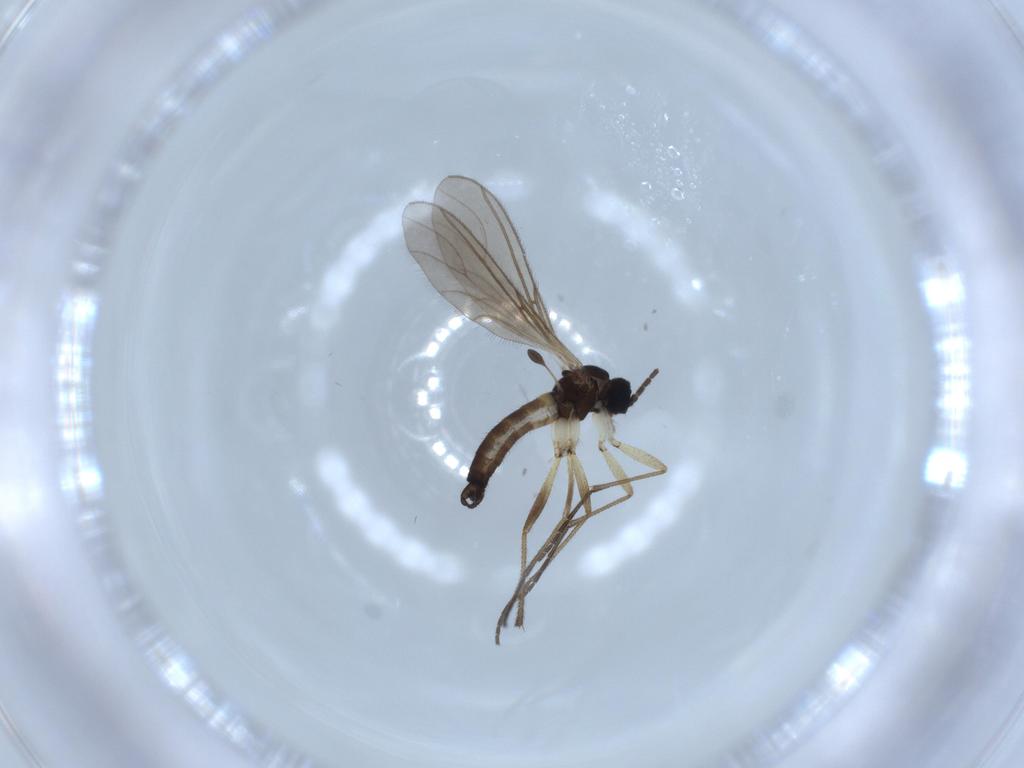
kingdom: Animalia
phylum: Arthropoda
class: Insecta
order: Diptera
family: Sciaridae
